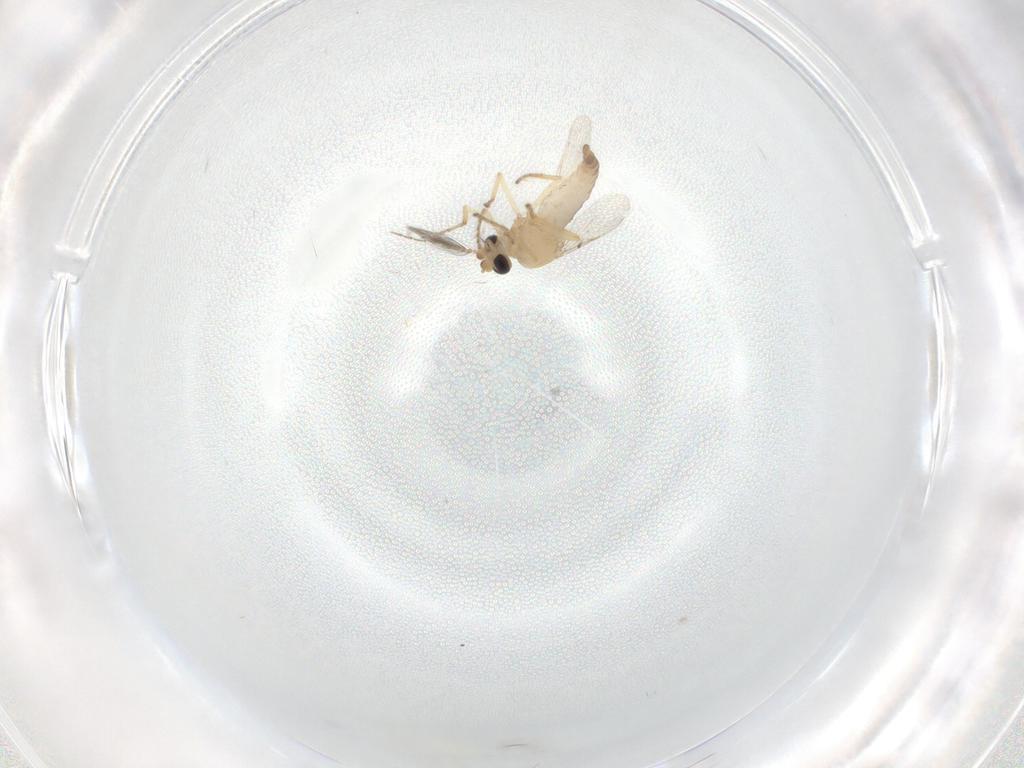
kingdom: Animalia
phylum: Arthropoda
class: Insecta
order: Diptera
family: Ceratopogonidae
